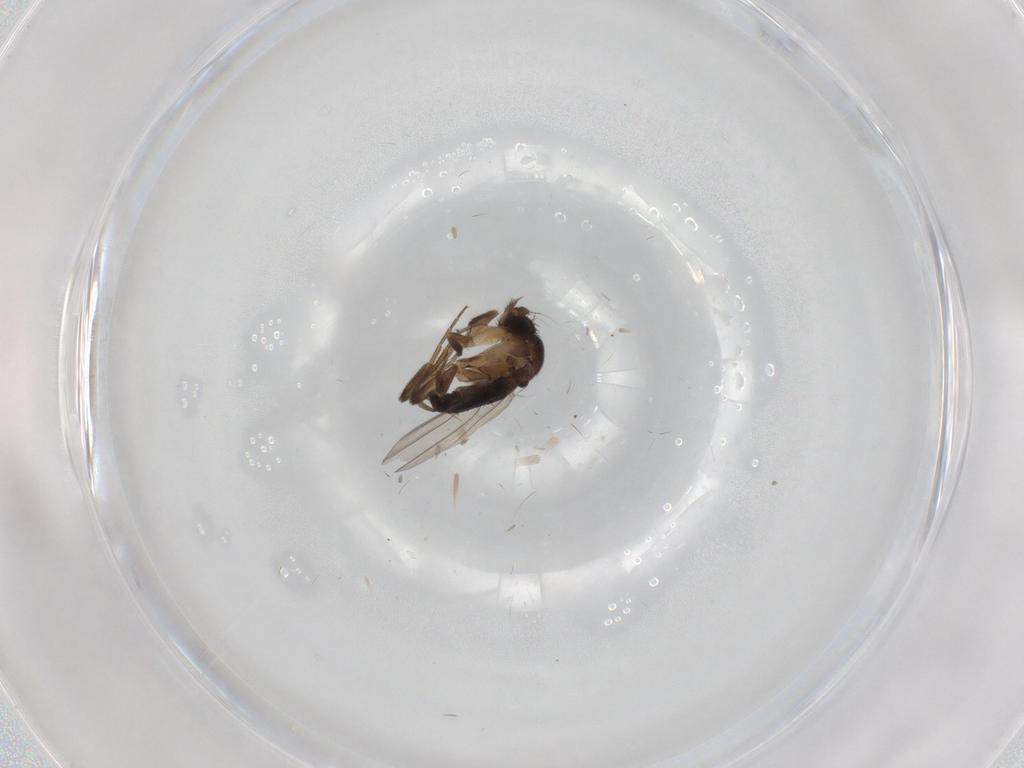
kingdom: Animalia
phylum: Arthropoda
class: Insecta
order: Diptera
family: Phoridae
